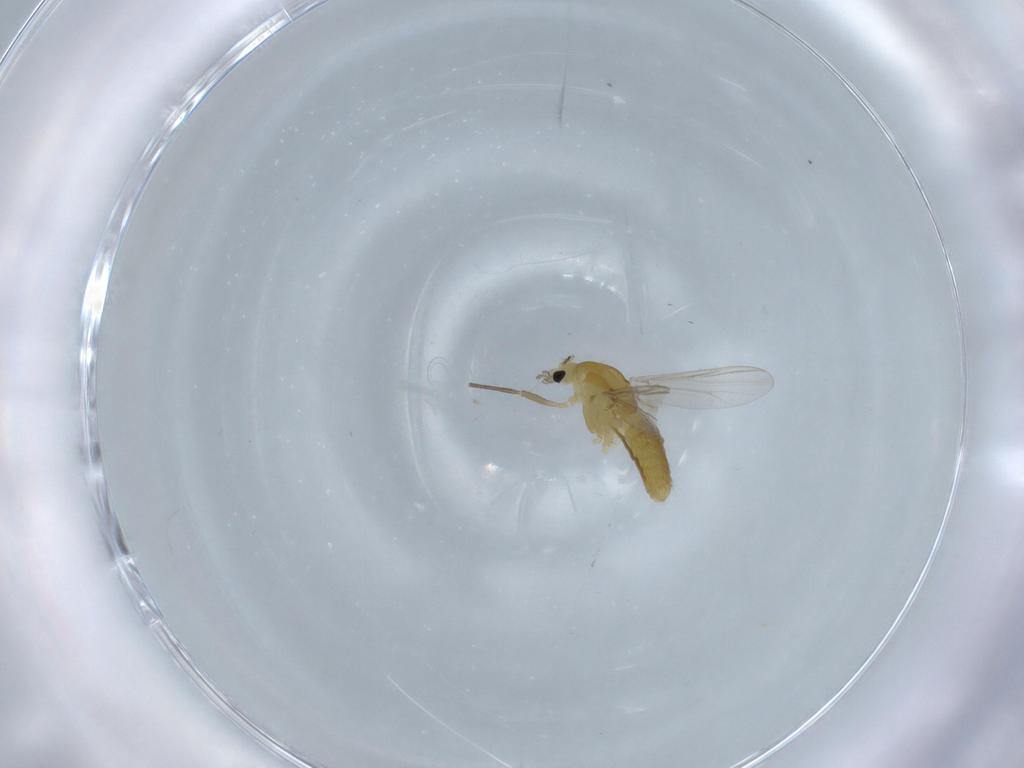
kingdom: Animalia
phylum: Arthropoda
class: Insecta
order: Diptera
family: Chironomidae
